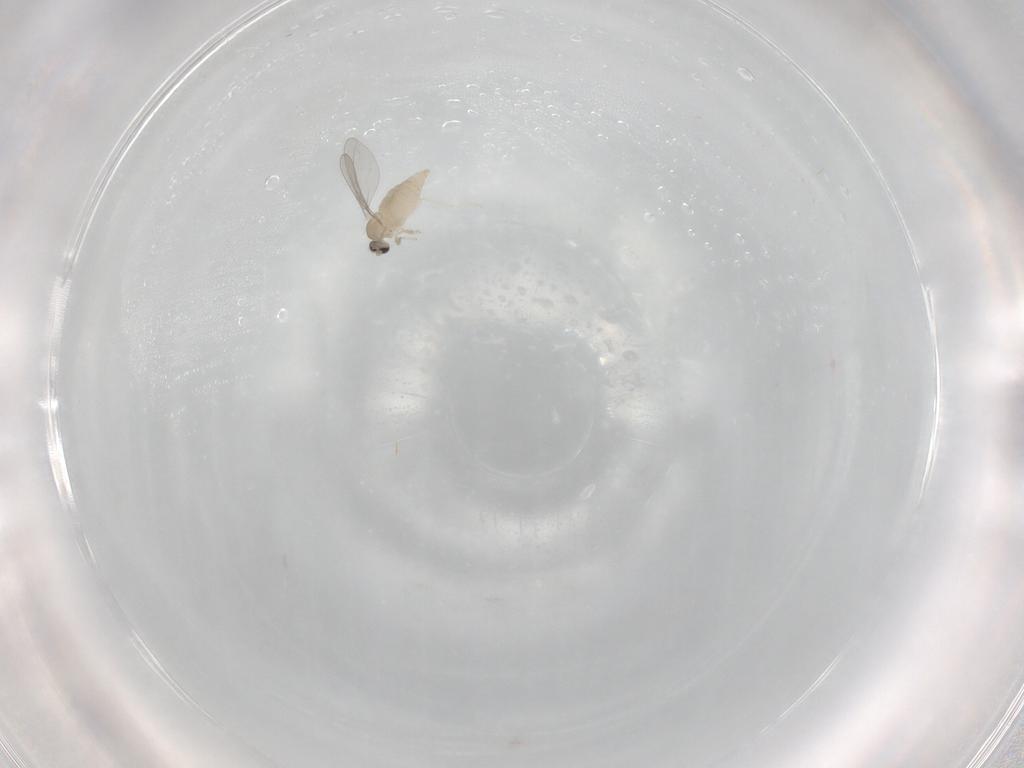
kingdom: Animalia
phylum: Arthropoda
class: Insecta
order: Diptera
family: Cecidomyiidae
